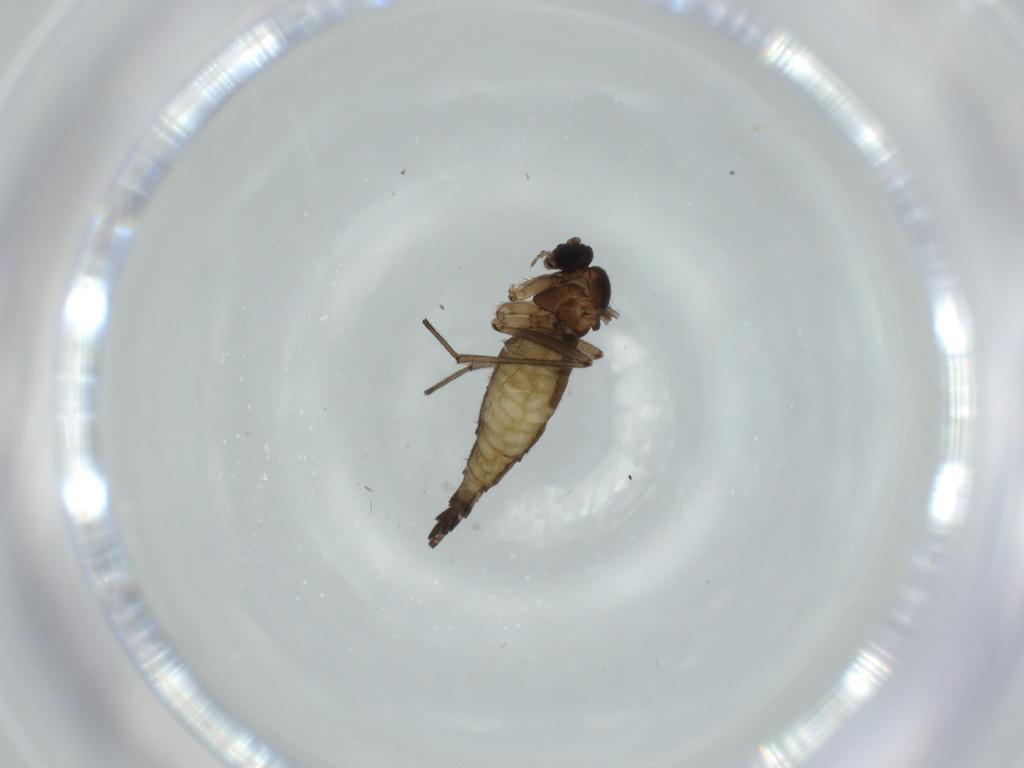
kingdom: Animalia
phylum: Arthropoda
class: Insecta
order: Diptera
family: Sciaridae
